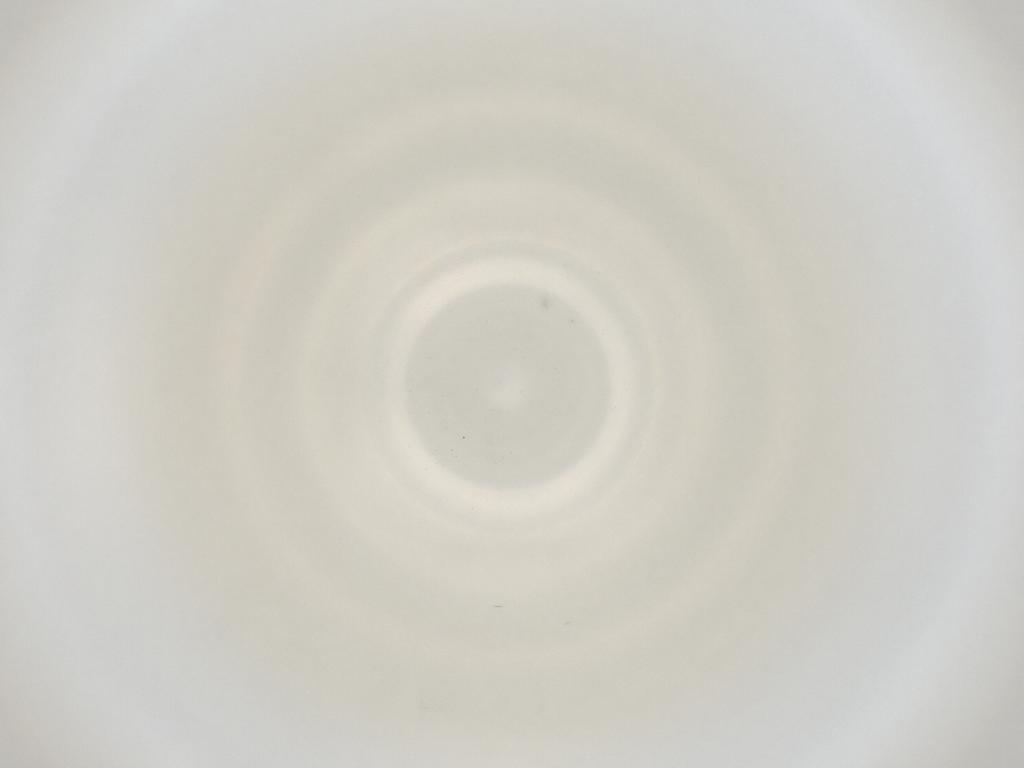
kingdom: Animalia
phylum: Arthropoda
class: Insecta
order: Diptera
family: Cecidomyiidae
